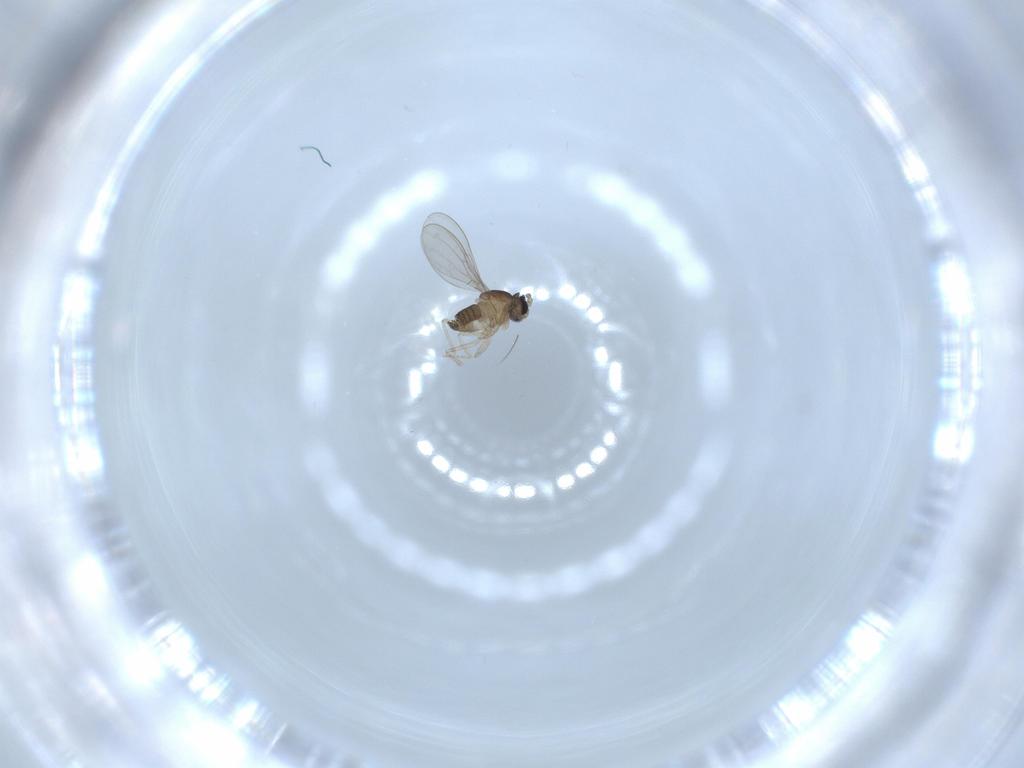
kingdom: Animalia
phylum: Arthropoda
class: Insecta
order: Diptera
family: Cecidomyiidae
